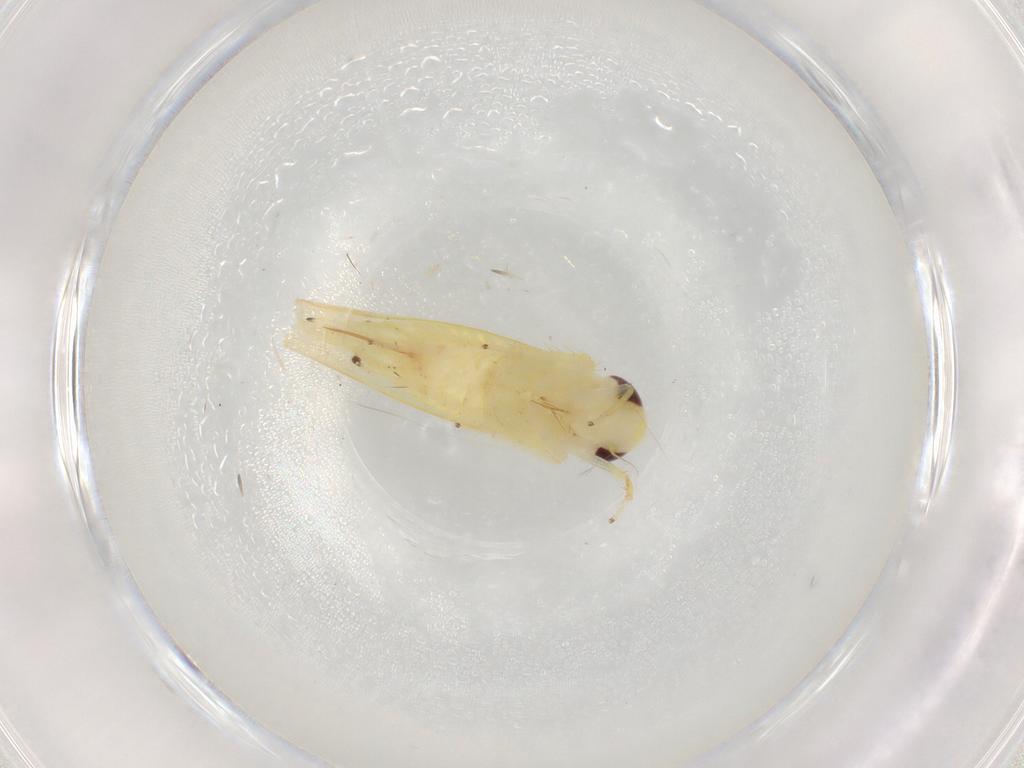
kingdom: Animalia
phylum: Arthropoda
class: Insecta
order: Hemiptera
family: Cicadellidae
